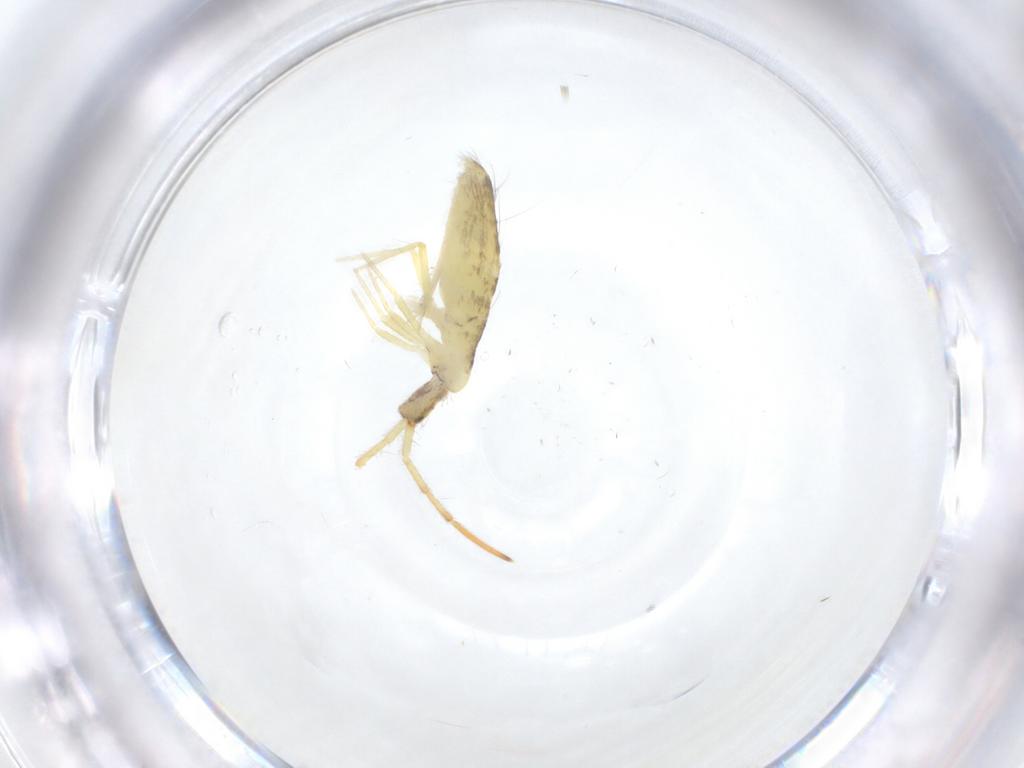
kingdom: Animalia
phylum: Arthropoda
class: Collembola
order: Entomobryomorpha
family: Entomobryidae
